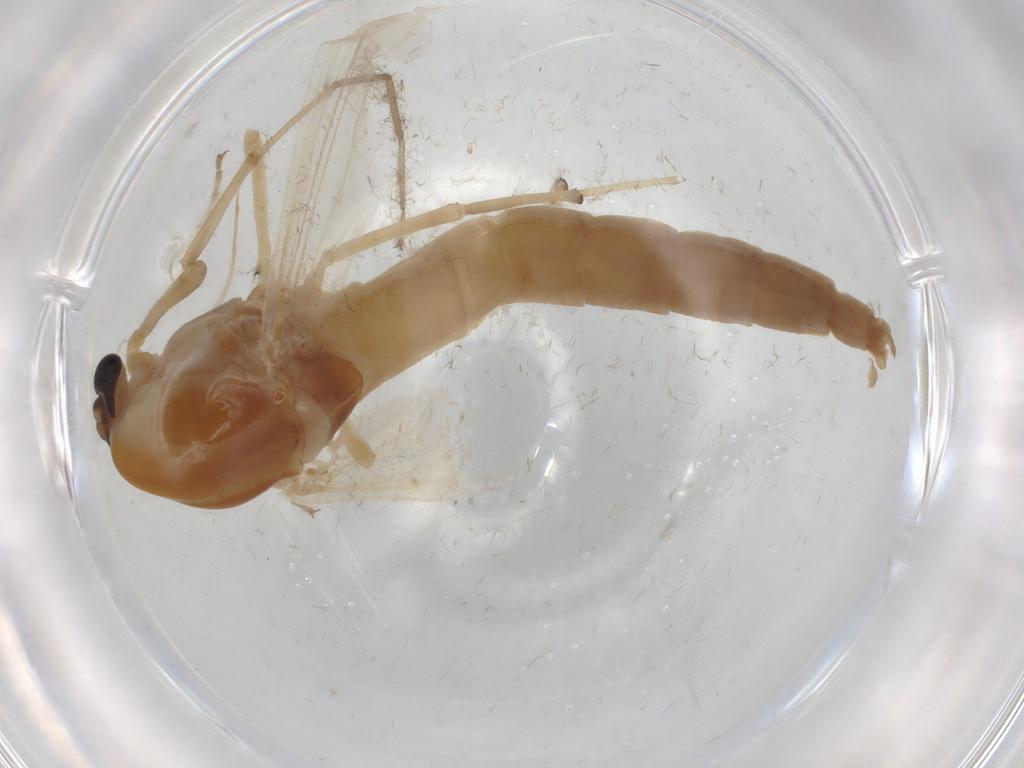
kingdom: Animalia
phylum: Arthropoda
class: Insecta
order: Diptera
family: Chironomidae
